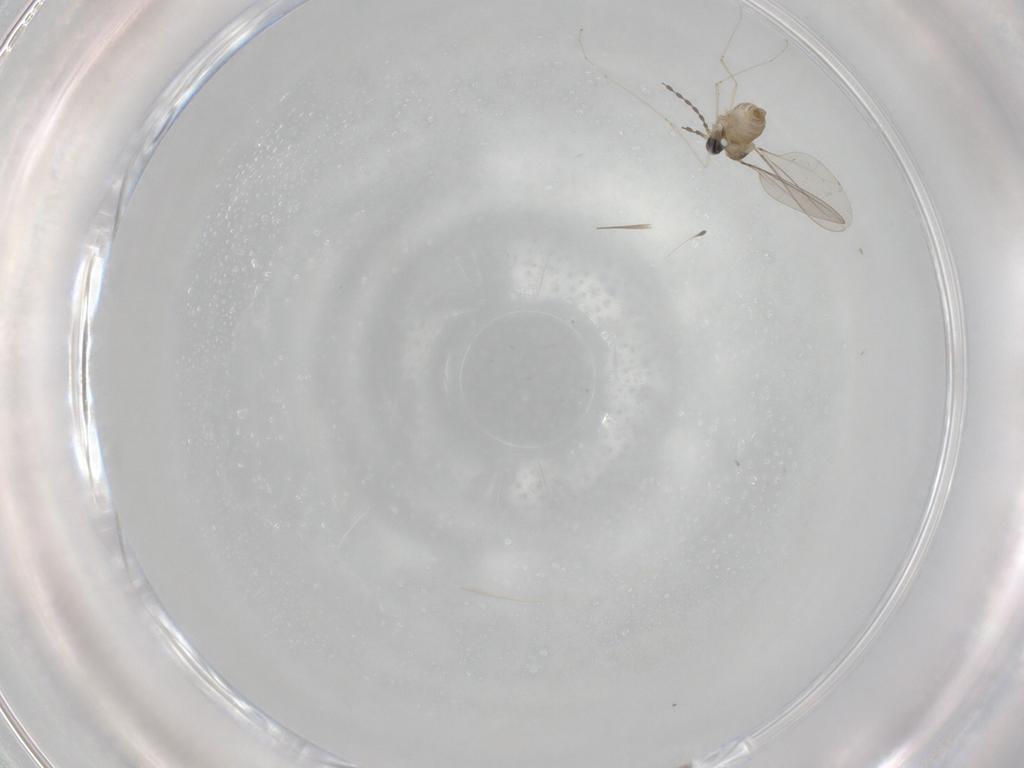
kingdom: Animalia
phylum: Arthropoda
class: Insecta
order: Diptera
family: Cecidomyiidae
